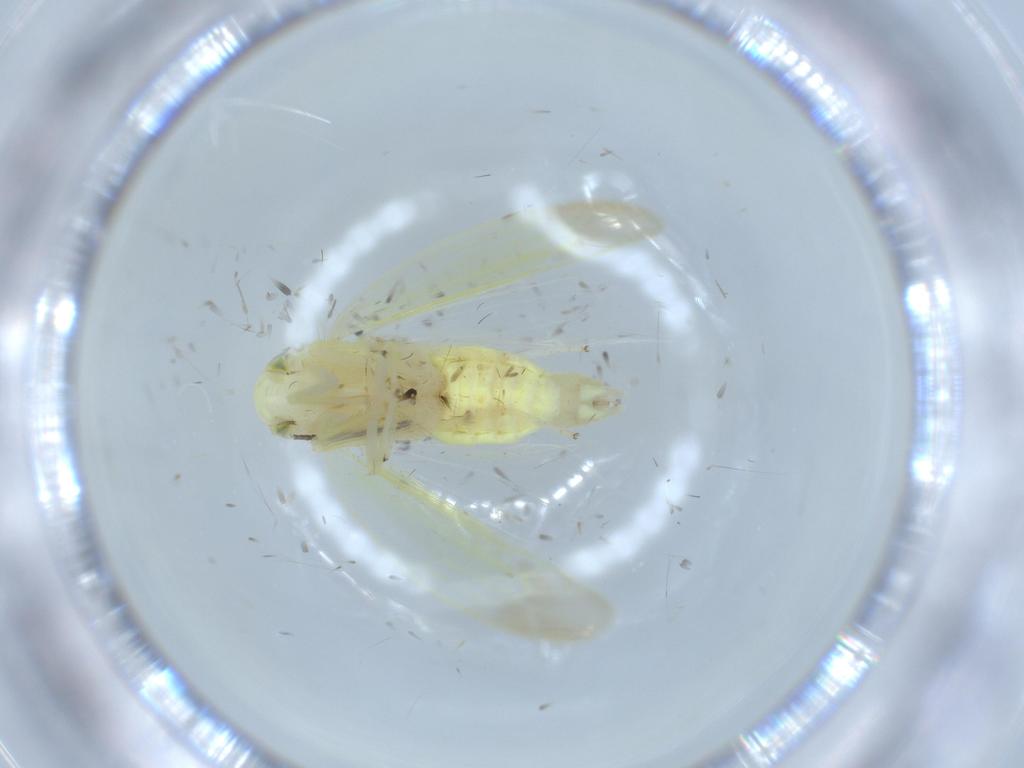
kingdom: Animalia
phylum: Arthropoda
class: Insecta
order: Hemiptera
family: Cicadellidae
